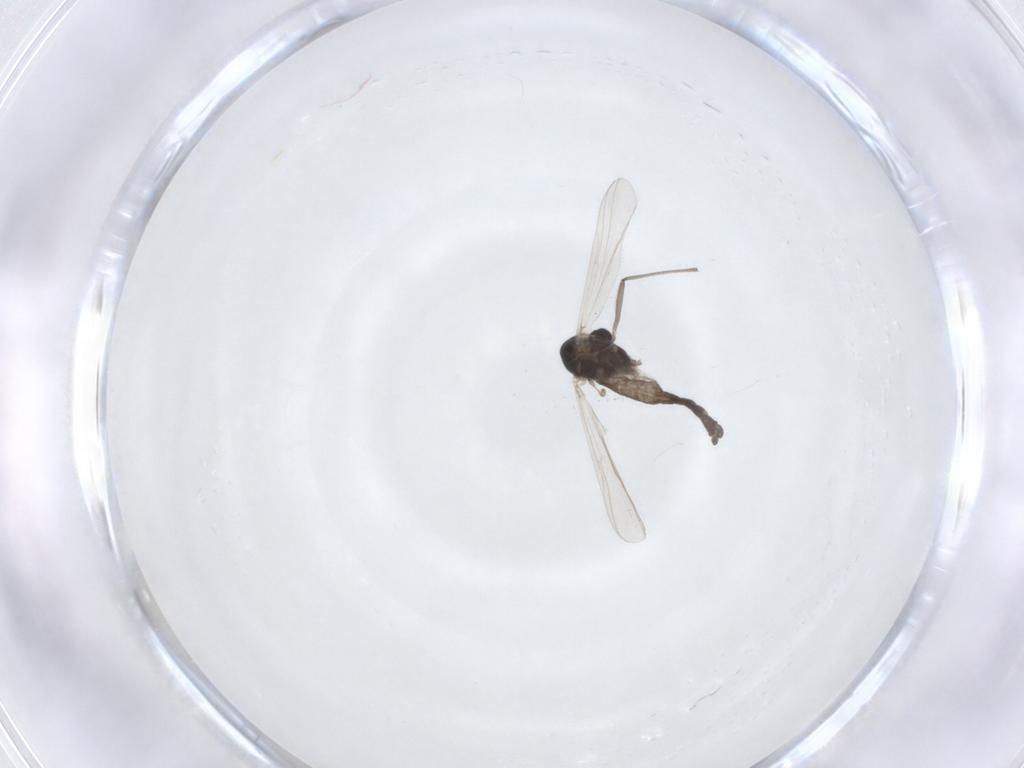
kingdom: Animalia
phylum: Arthropoda
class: Insecta
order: Diptera
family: Chironomidae
